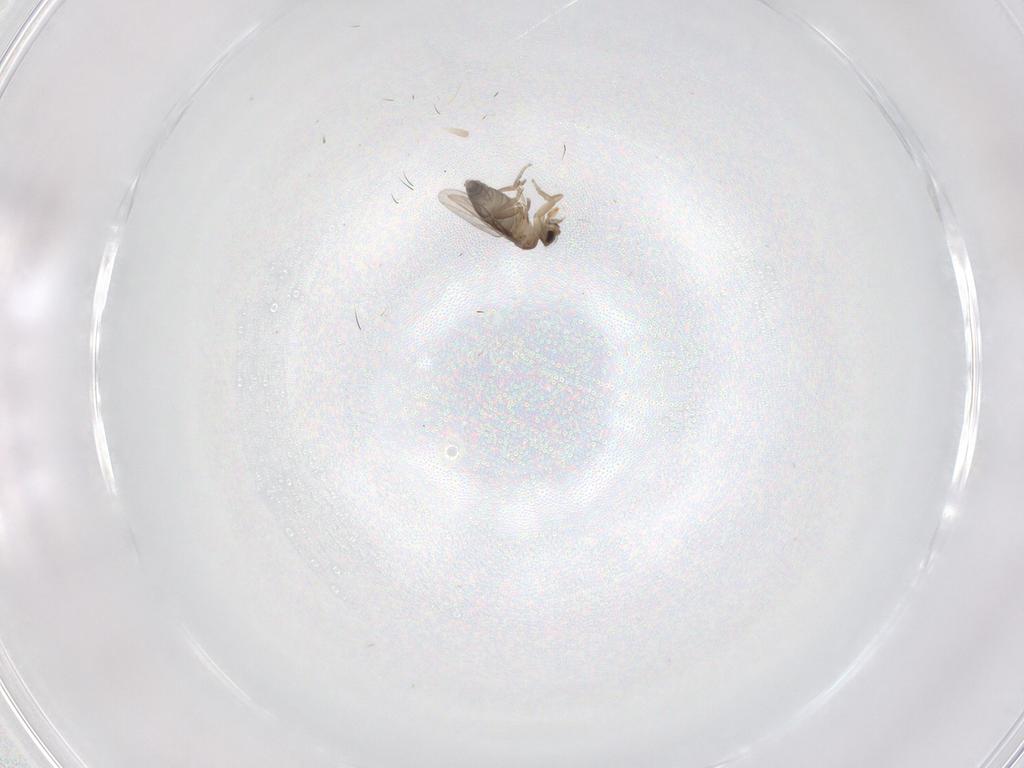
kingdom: Animalia
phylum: Arthropoda
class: Insecta
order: Diptera
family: Phoridae
